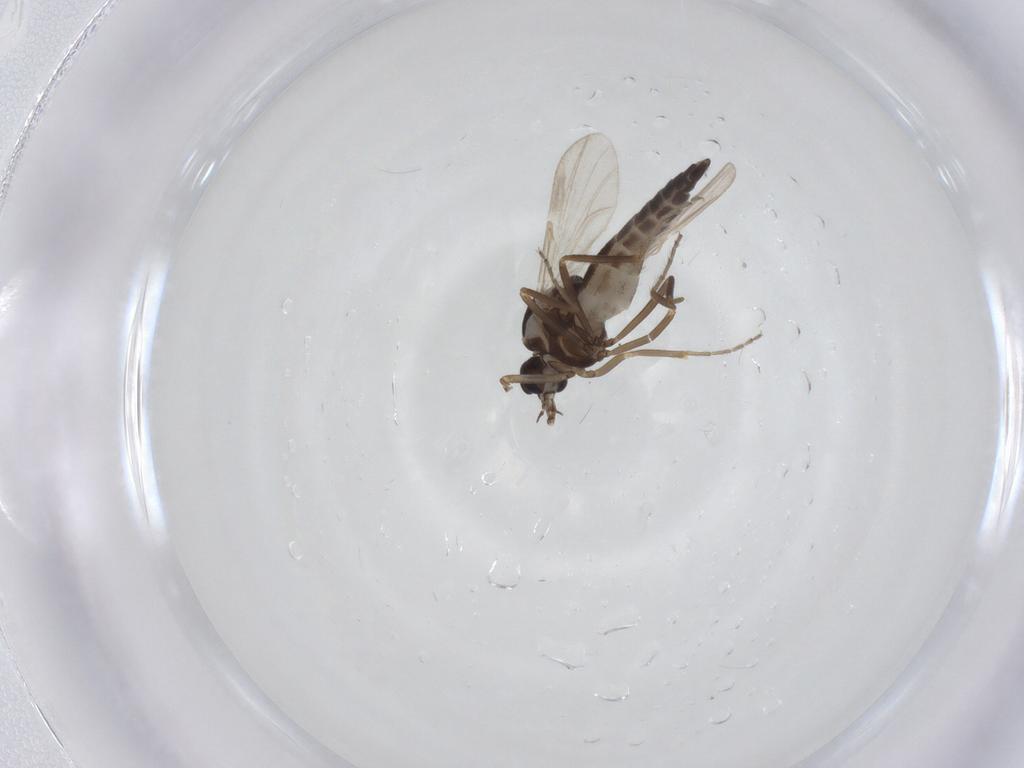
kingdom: Animalia
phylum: Arthropoda
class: Insecta
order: Diptera
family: Ceratopogonidae
